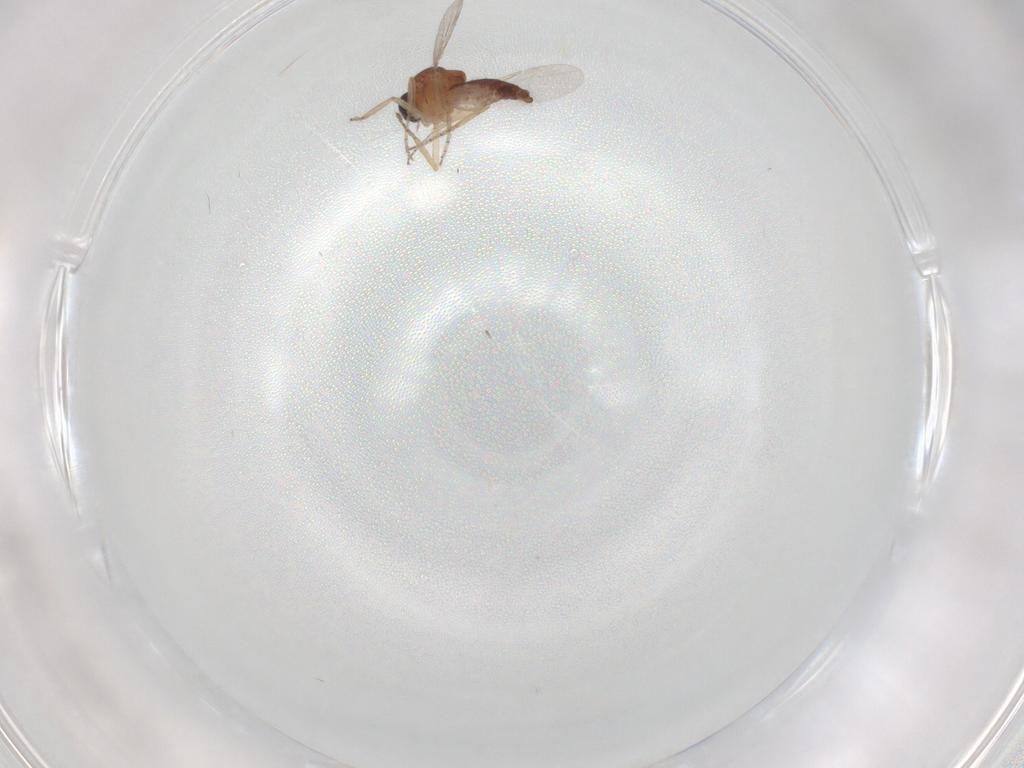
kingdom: Animalia
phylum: Arthropoda
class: Insecta
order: Diptera
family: Ceratopogonidae
